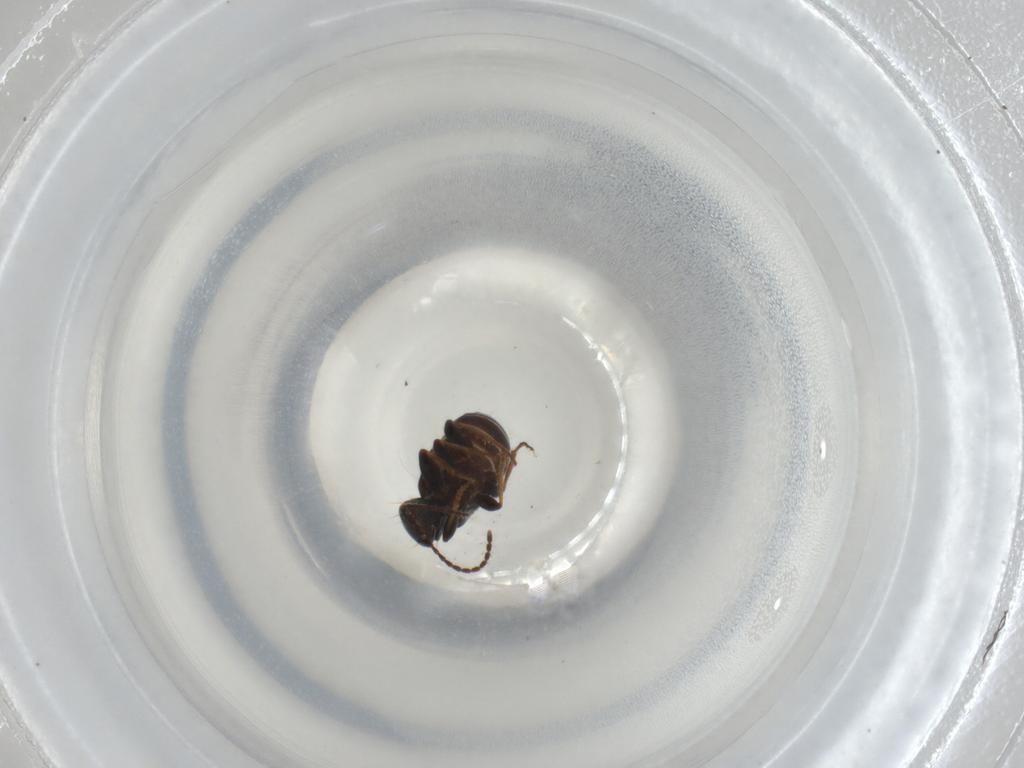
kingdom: Animalia
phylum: Arthropoda
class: Insecta
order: Coleoptera
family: Carabidae
